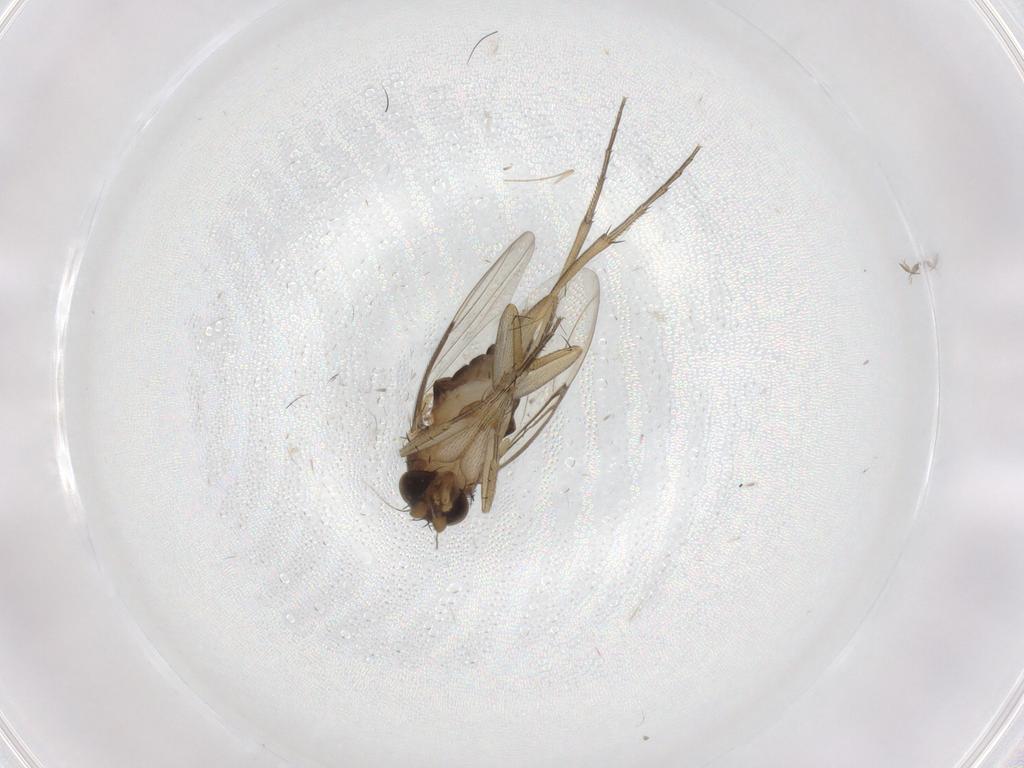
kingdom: Animalia
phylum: Arthropoda
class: Insecta
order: Diptera
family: Phoridae
